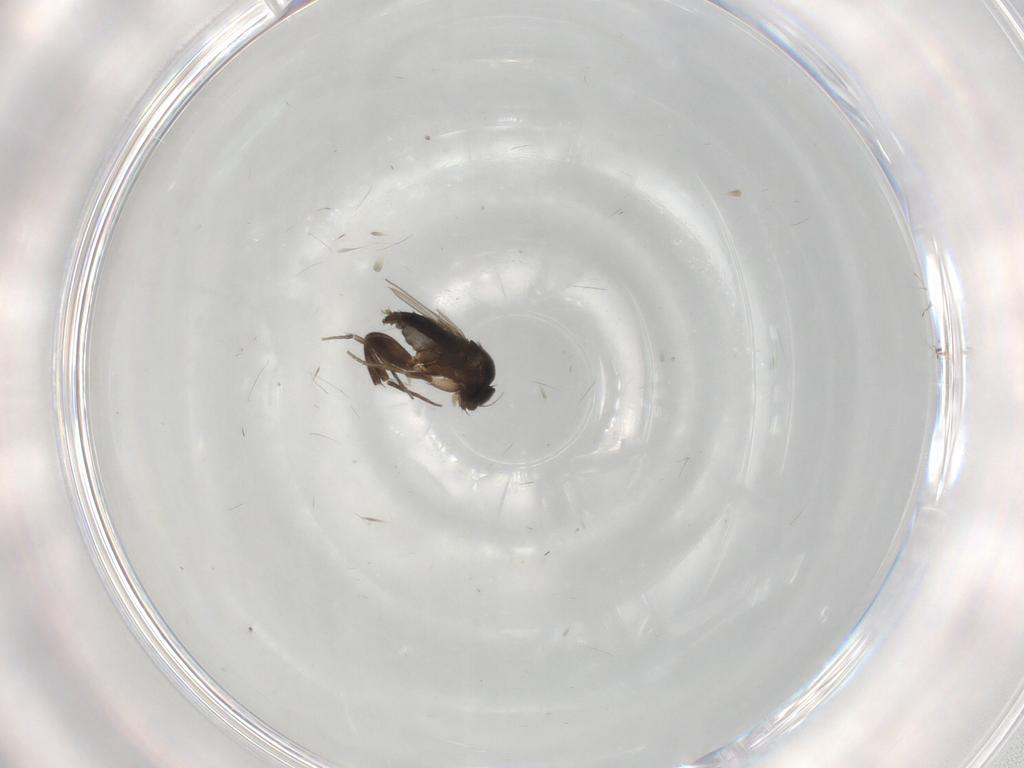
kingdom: Animalia
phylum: Arthropoda
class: Insecta
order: Diptera
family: Phoridae
